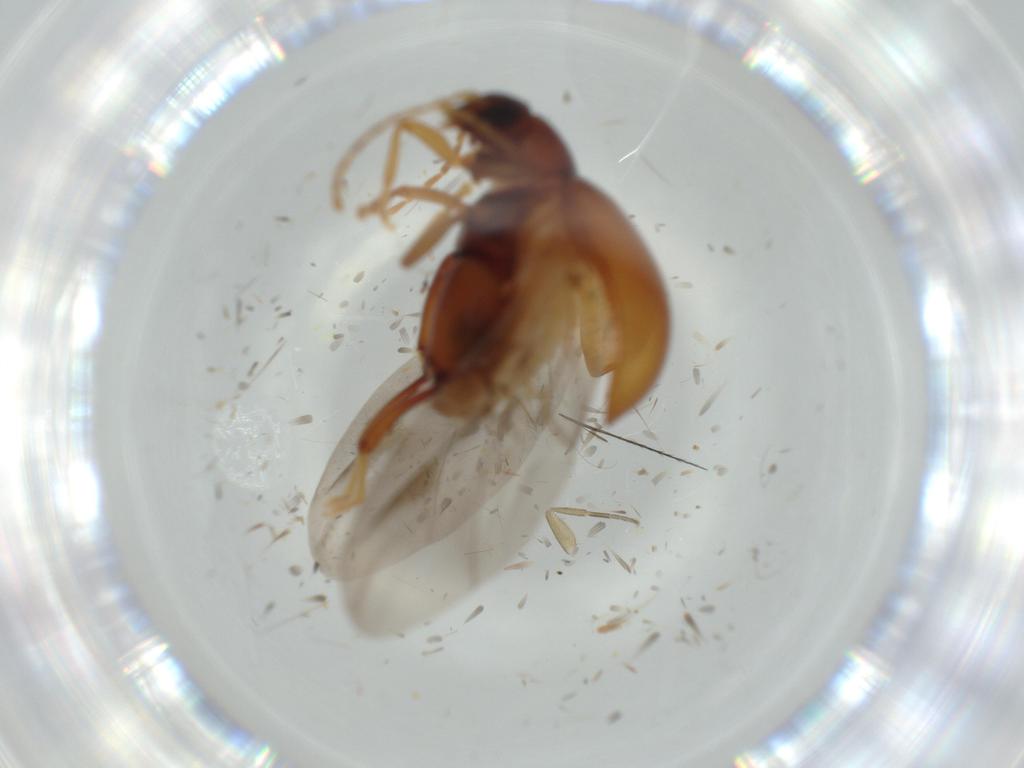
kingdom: Animalia
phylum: Arthropoda
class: Insecta
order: Coleoptera
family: Chrysomelidae
